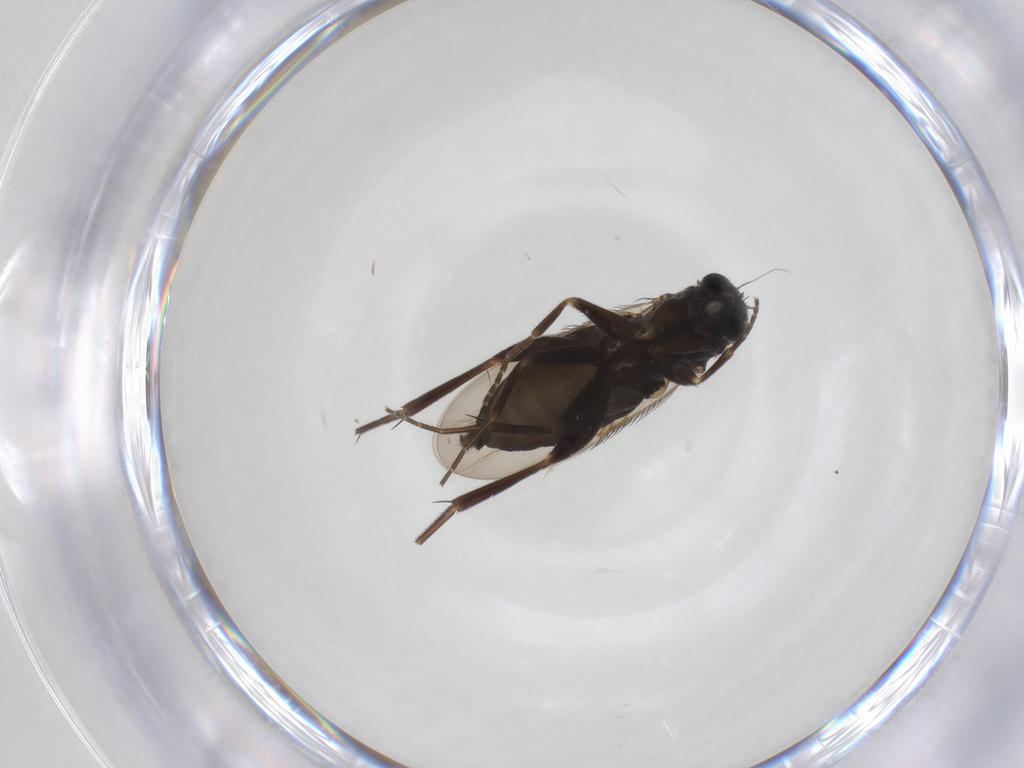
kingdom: Animalia
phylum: Arthropoda
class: Insecta
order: Diptera
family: Phoridae
